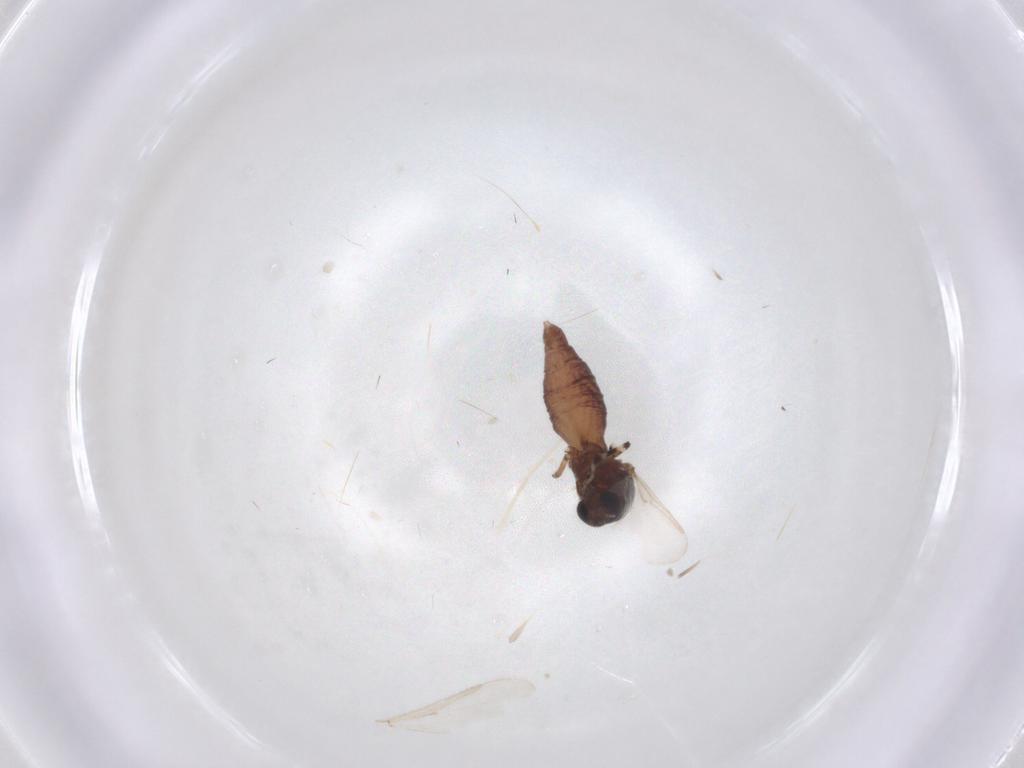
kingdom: Animalia
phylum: Arthropoda
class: Insecta
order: Diptera
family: Ceratopogonidae
